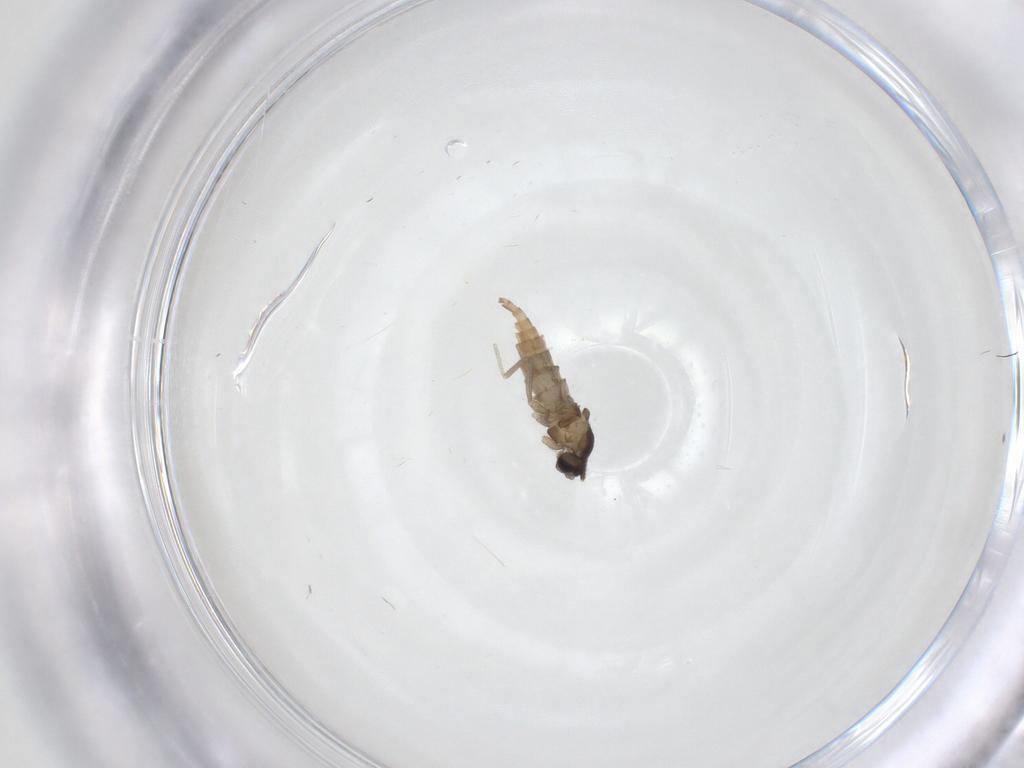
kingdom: Animalia
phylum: Arthropoda
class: Insecta
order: Diptera
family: Cecidomyiidae
